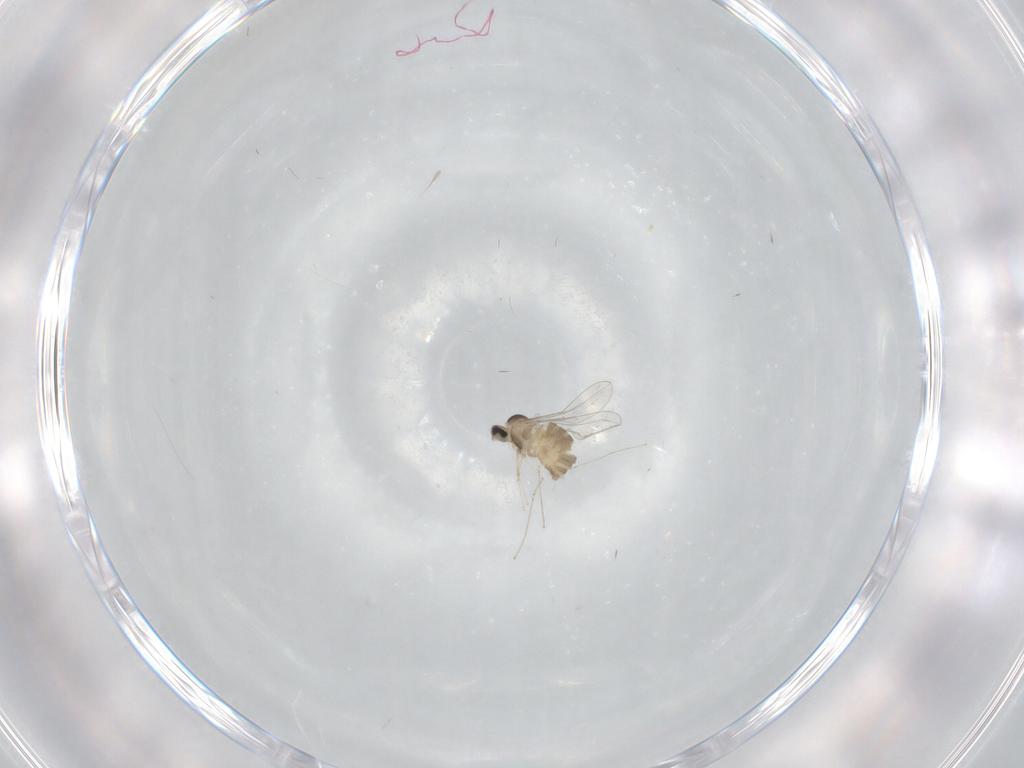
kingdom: Animalia
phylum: Arthropoda
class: Insecta
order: Diptera
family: Cecidomyiidae
